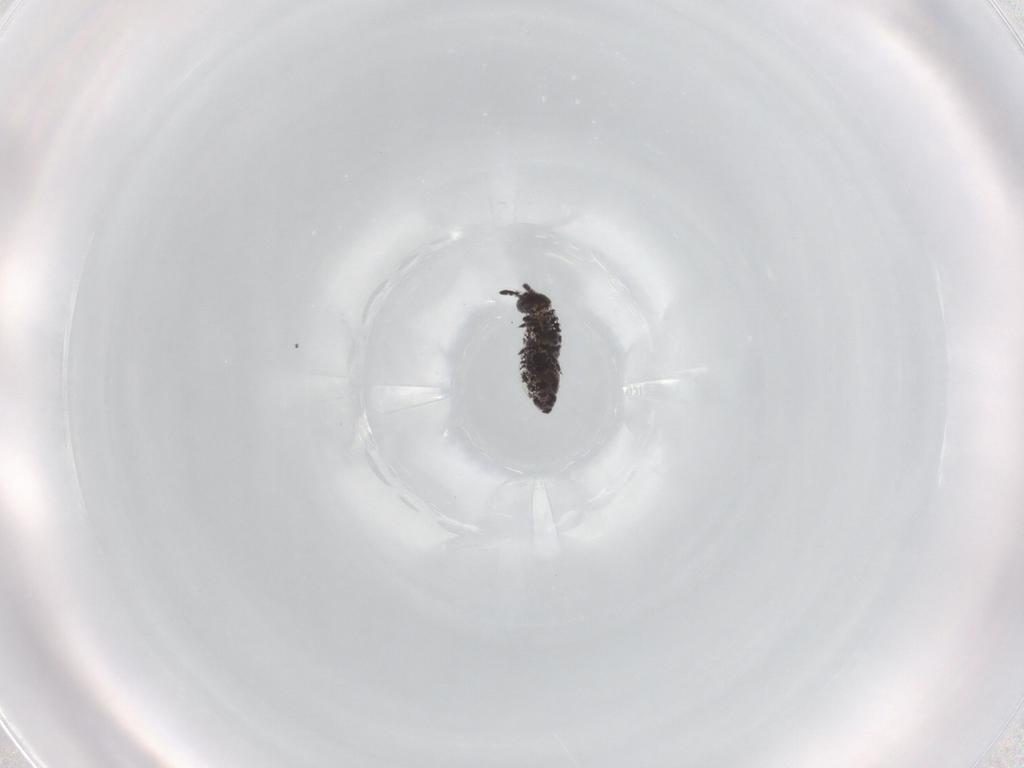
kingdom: Animalia
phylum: Arthropoda
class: Collembola
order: Poduromorpha
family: Hypogastruridae
